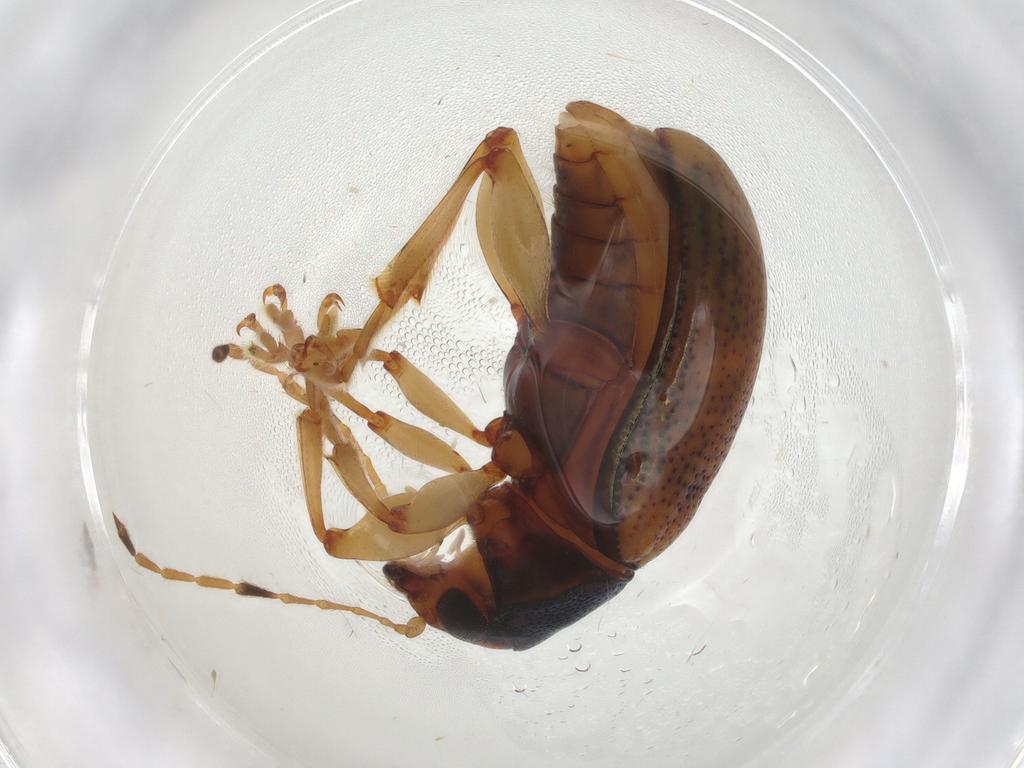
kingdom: Animalia
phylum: Arthropoda
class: Insecta
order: Coleoptera
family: Chrysomelidae
